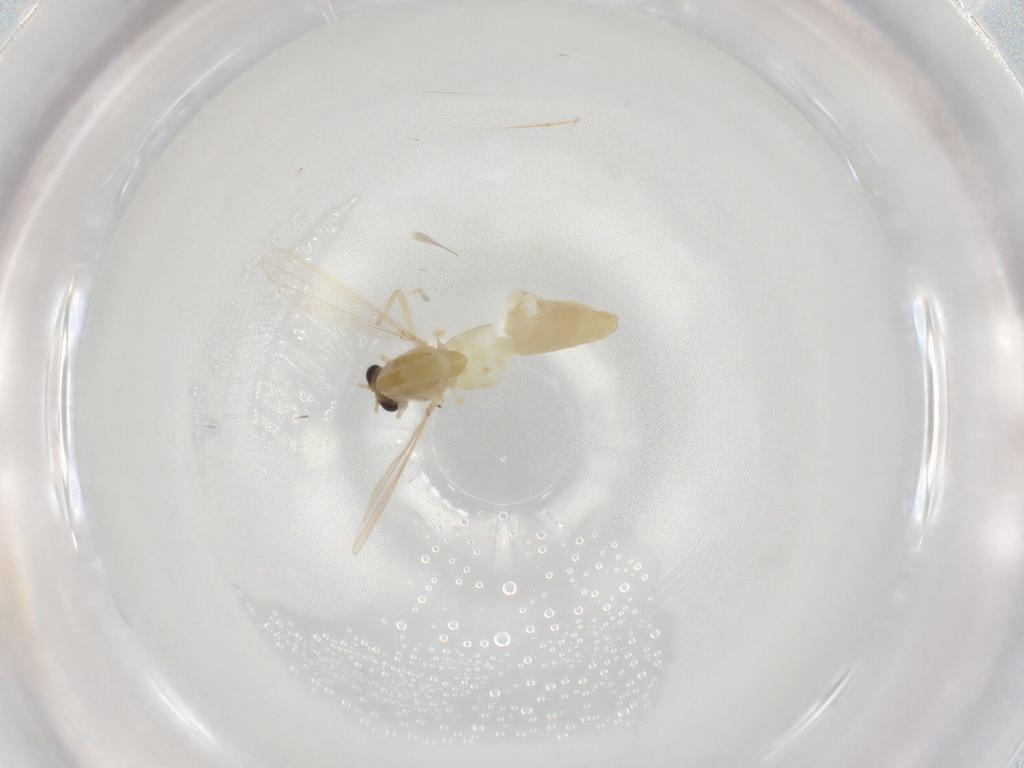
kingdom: Animalia
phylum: Arthropoda
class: Insecta
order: Diptera
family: Chironomidae
